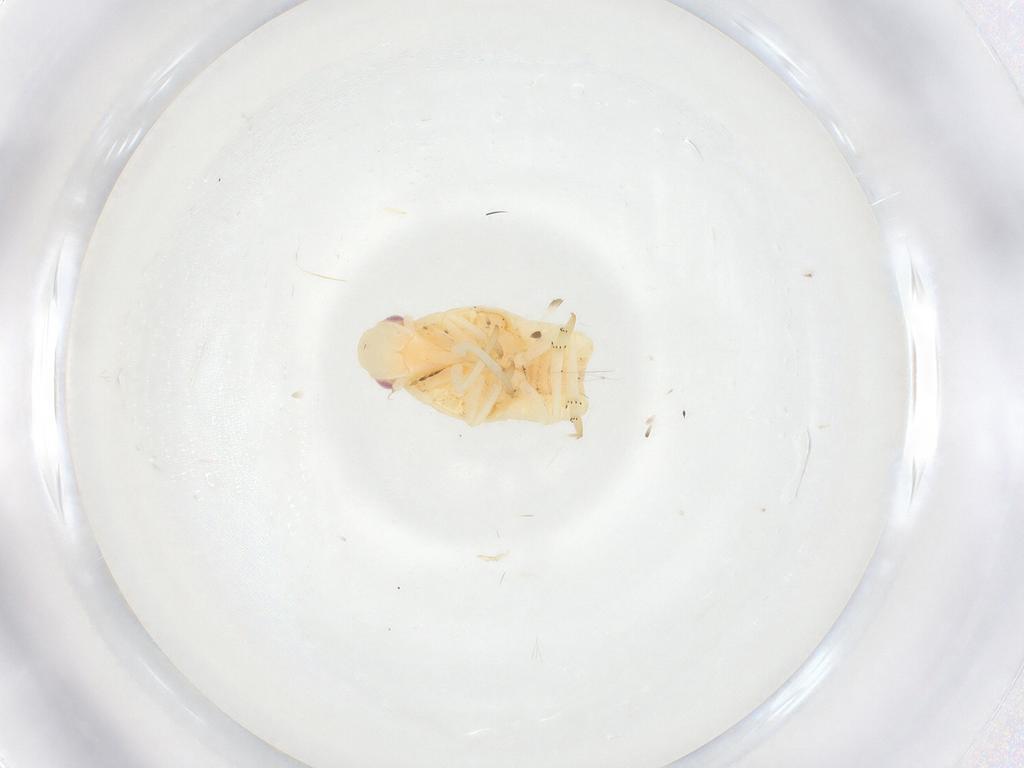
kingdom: Animalia
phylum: Arthropoda
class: Insecta
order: Hemiptera
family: Flatidae
